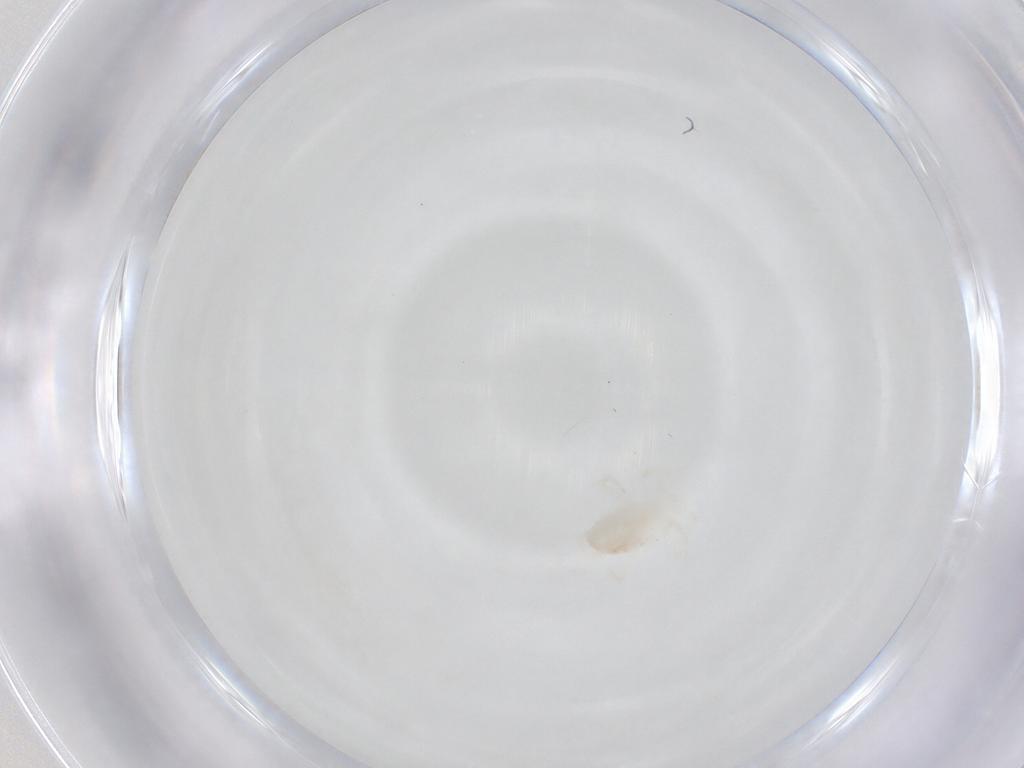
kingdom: Animalia
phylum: Arthropoda
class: Arachnida
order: Trombidiformes
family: Rhagidiidae
